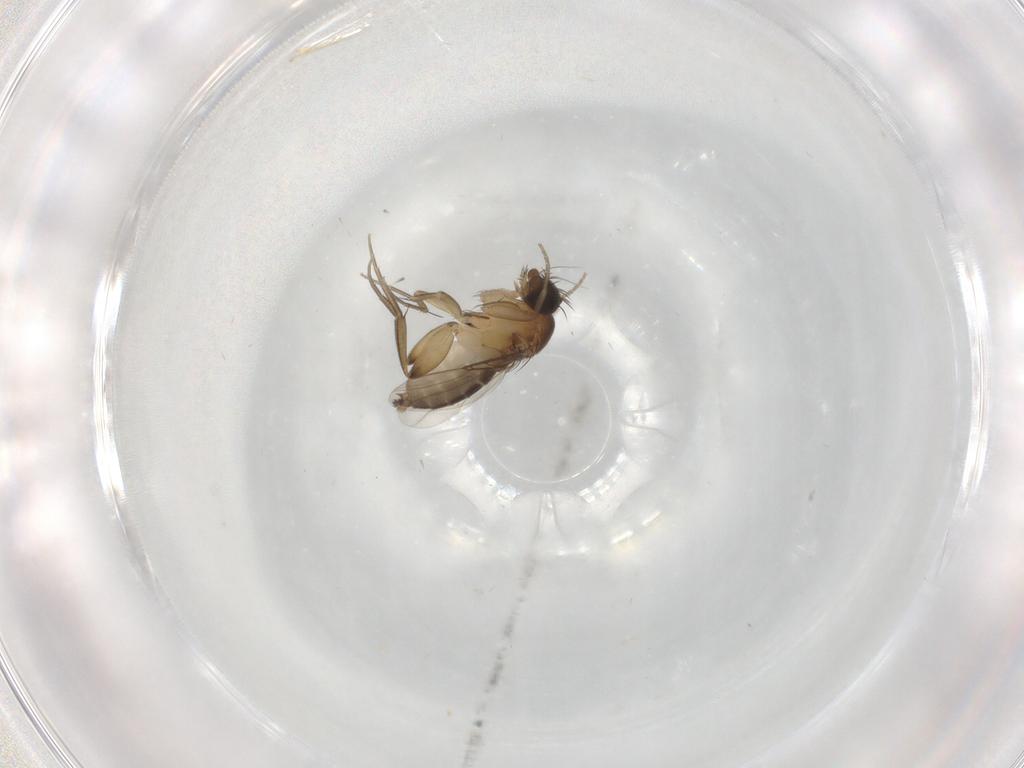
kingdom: Animalia
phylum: Arthropoda
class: Insecta
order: Diptera
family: Phoridae
